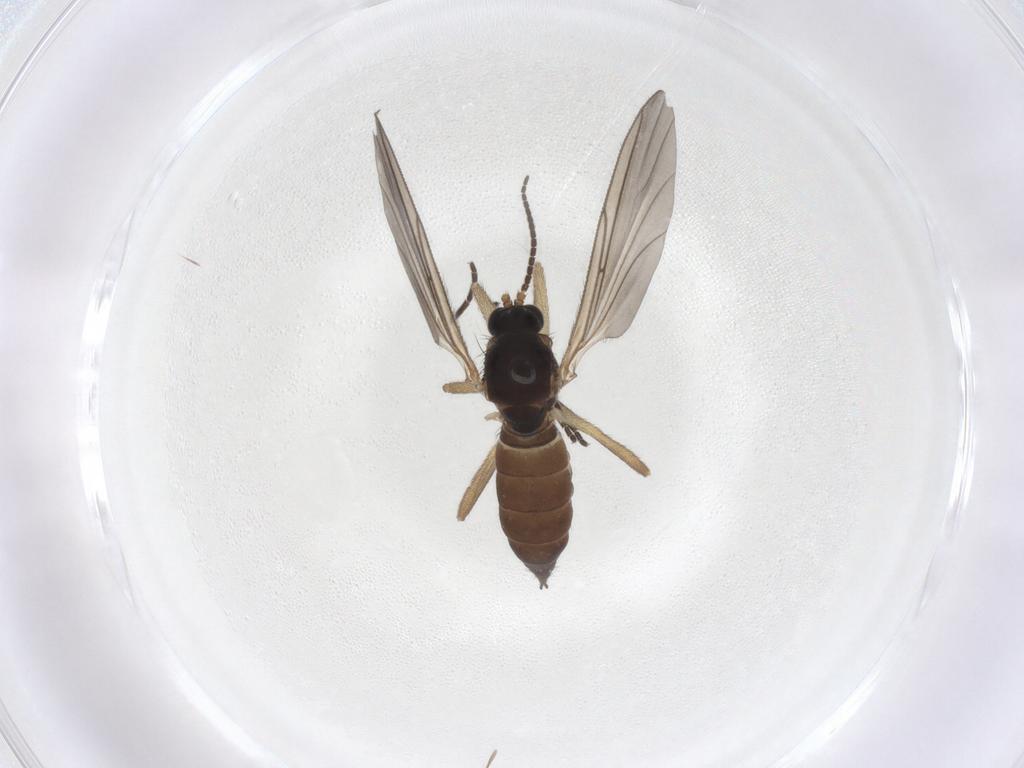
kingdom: Animalia
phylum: Arthropoda
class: Insecta
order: Diptera
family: Sciaridae
